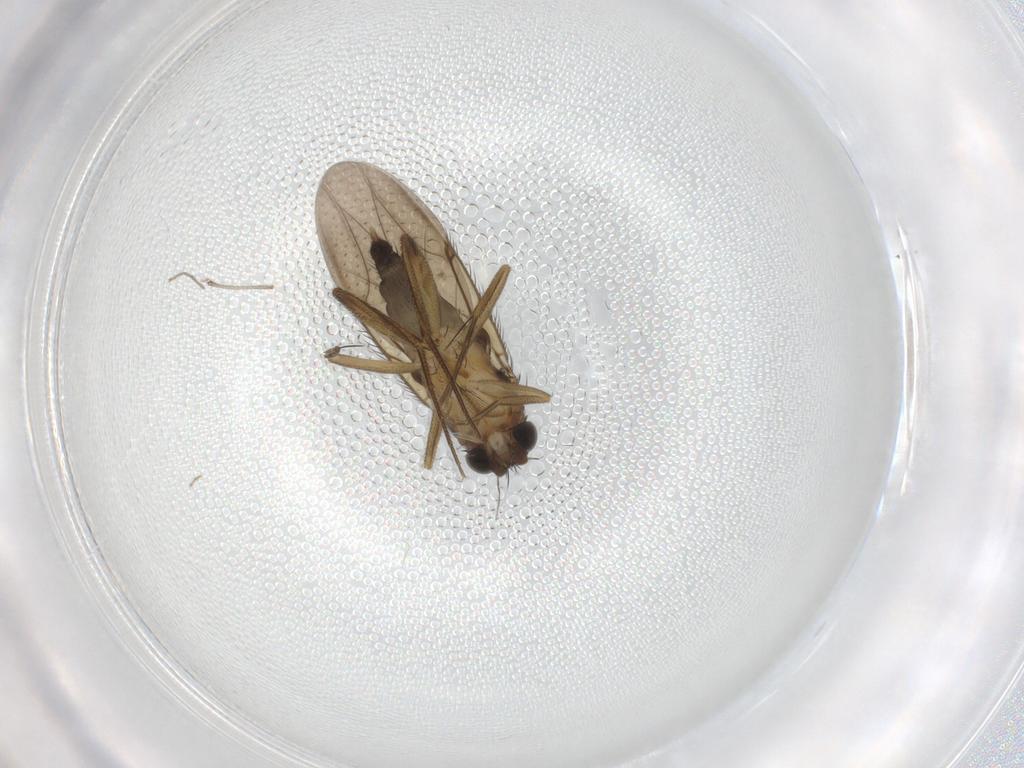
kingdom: Animalia
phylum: Arthropoda
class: Insecta
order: Diptera
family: Phoridae
